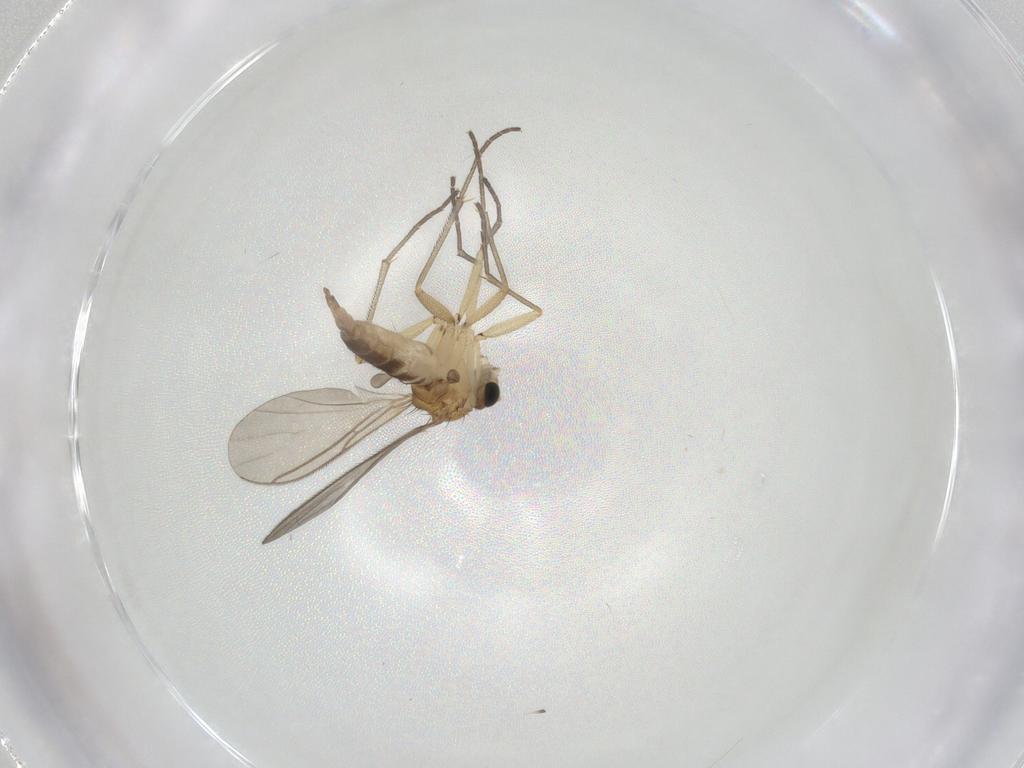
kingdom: Animalia
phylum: Arthropoda
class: Insecta
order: Diptera
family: Sciaridae
